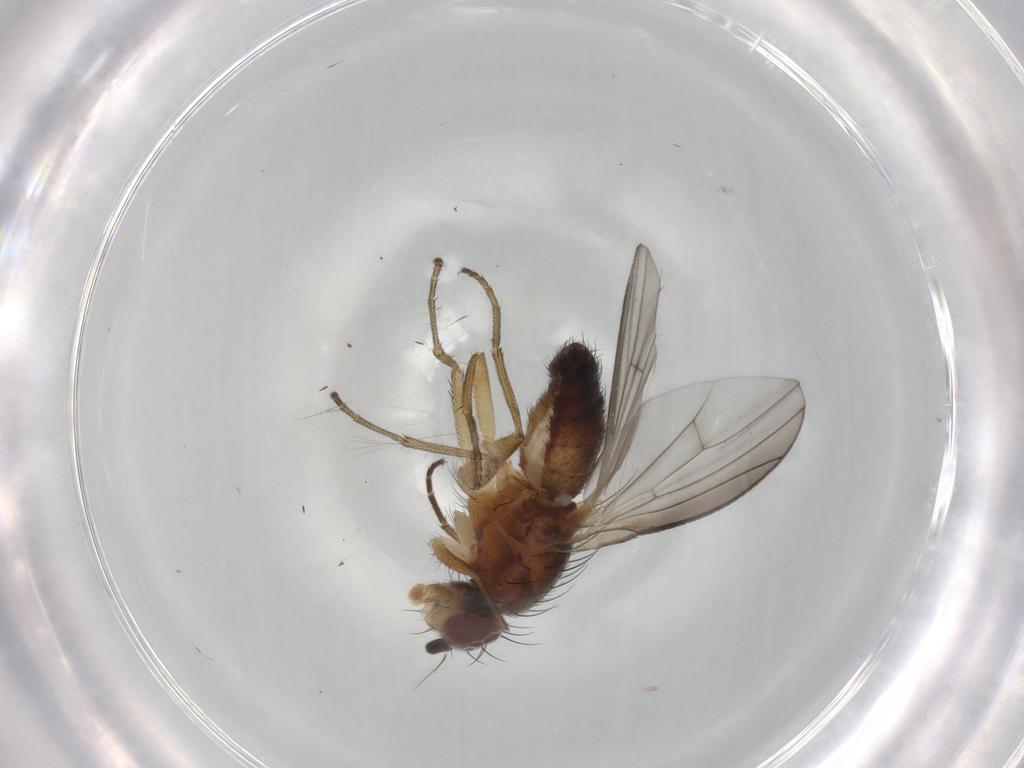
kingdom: Animalia
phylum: Arthropoda
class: Insecta
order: Diptera
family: Heleomyzidae
